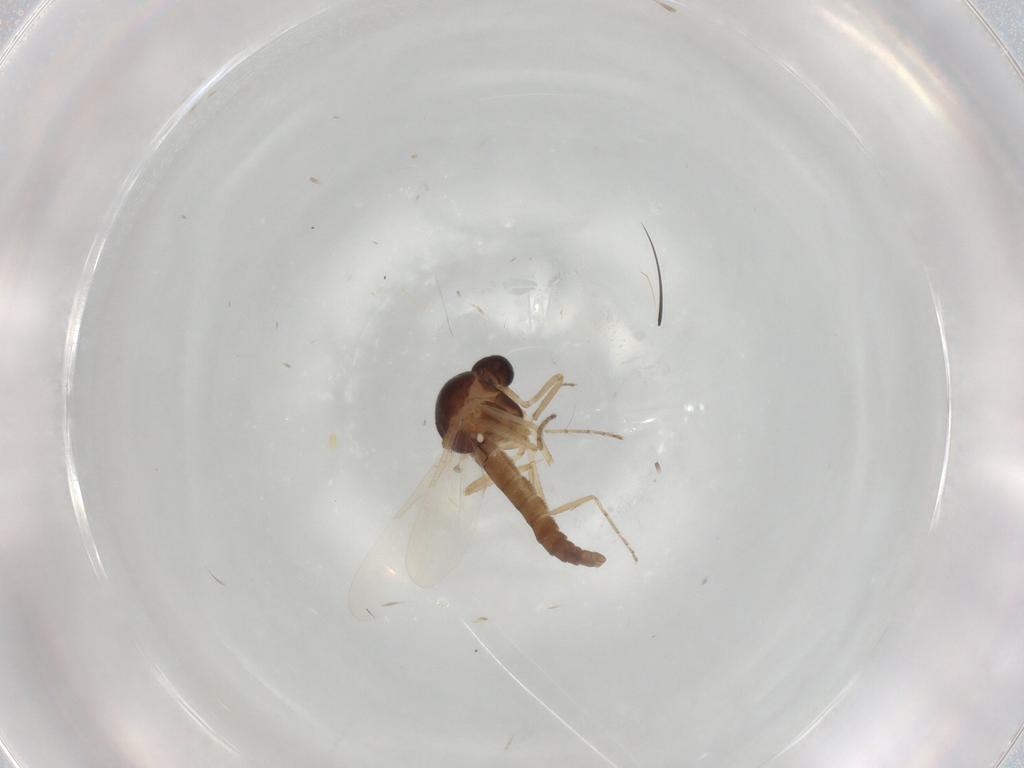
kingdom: Animalia
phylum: Arthropoda
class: Insecta
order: Diptera
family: Ceratopogonidae
